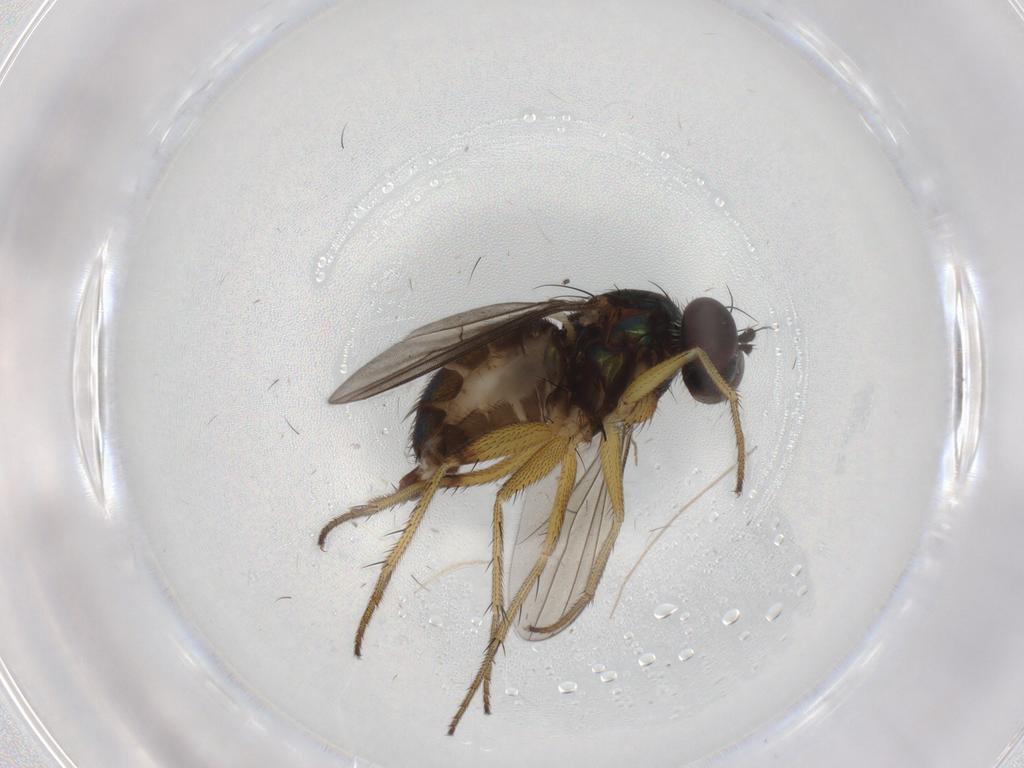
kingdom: Animalia
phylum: Arthropoda
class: Insecta
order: Diptera
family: Dolichopodidae
